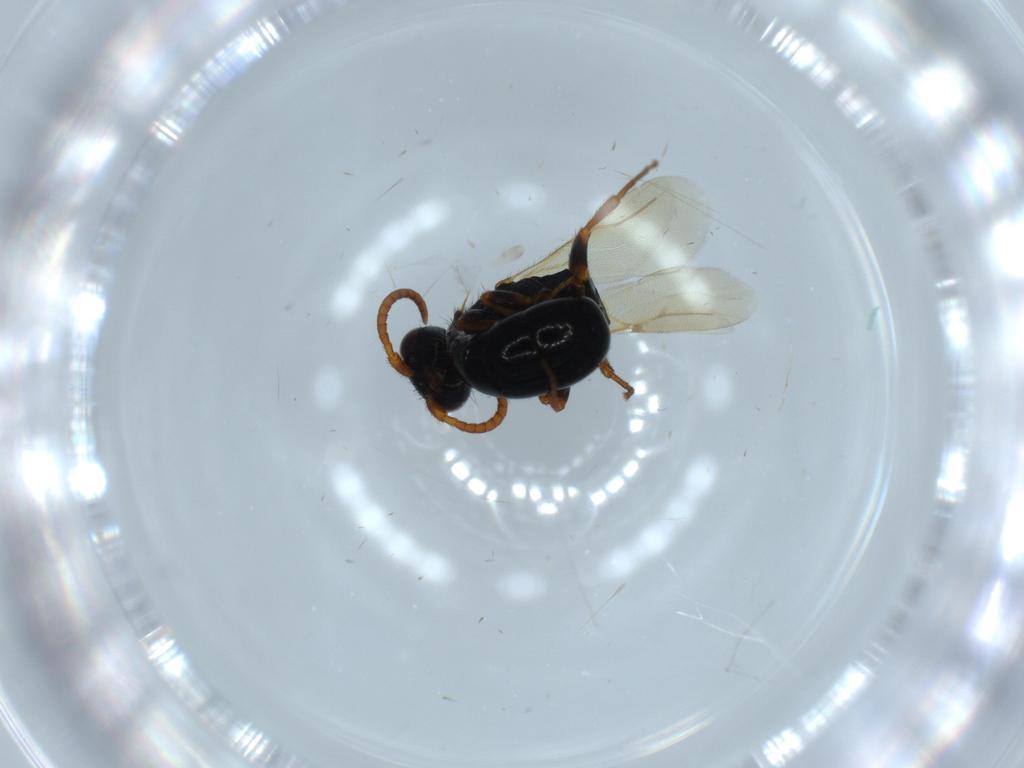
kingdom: Animalia
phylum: Arthropoda
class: Insecta
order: Hymenoptera
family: Bethylidae
